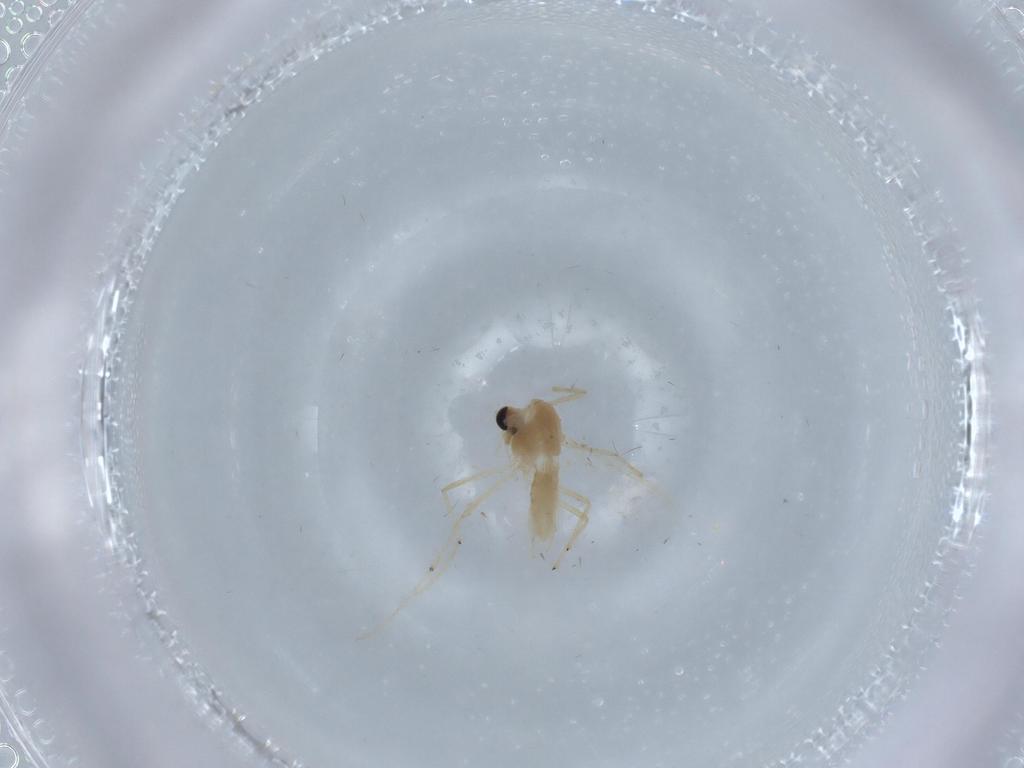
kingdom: Animalia
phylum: Arthropoda
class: Insecta
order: Diptera
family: Chironomidae
